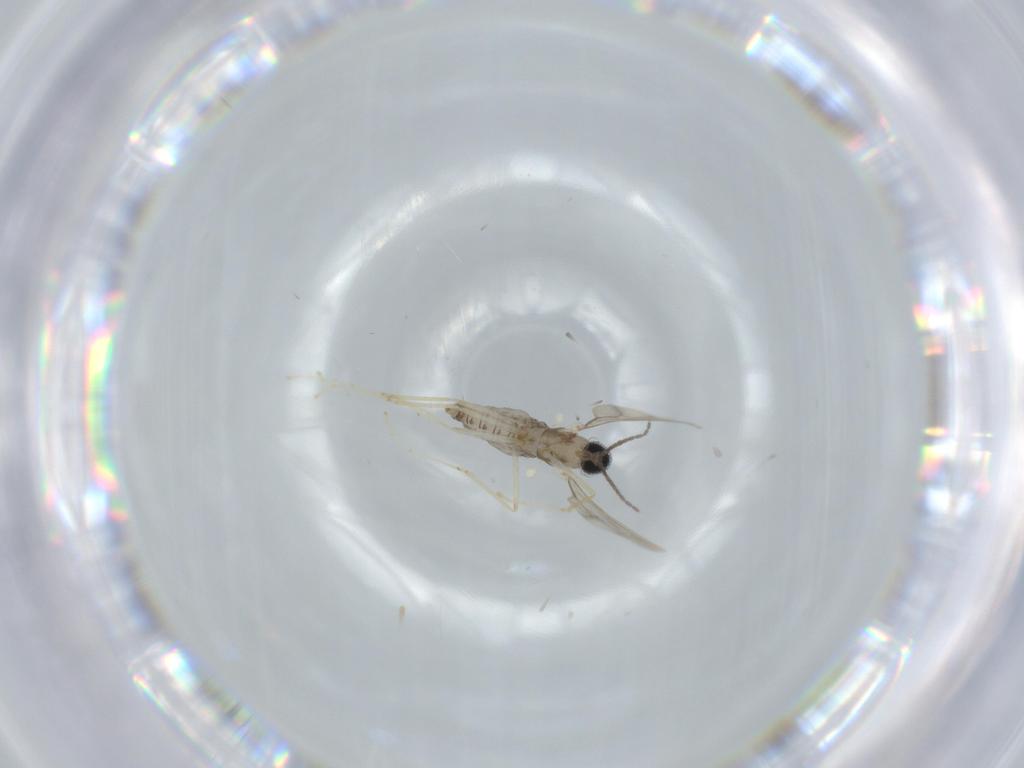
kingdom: Animalia
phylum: Arthropoda
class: Insecta
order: Diptera
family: Cecidomyiidae
